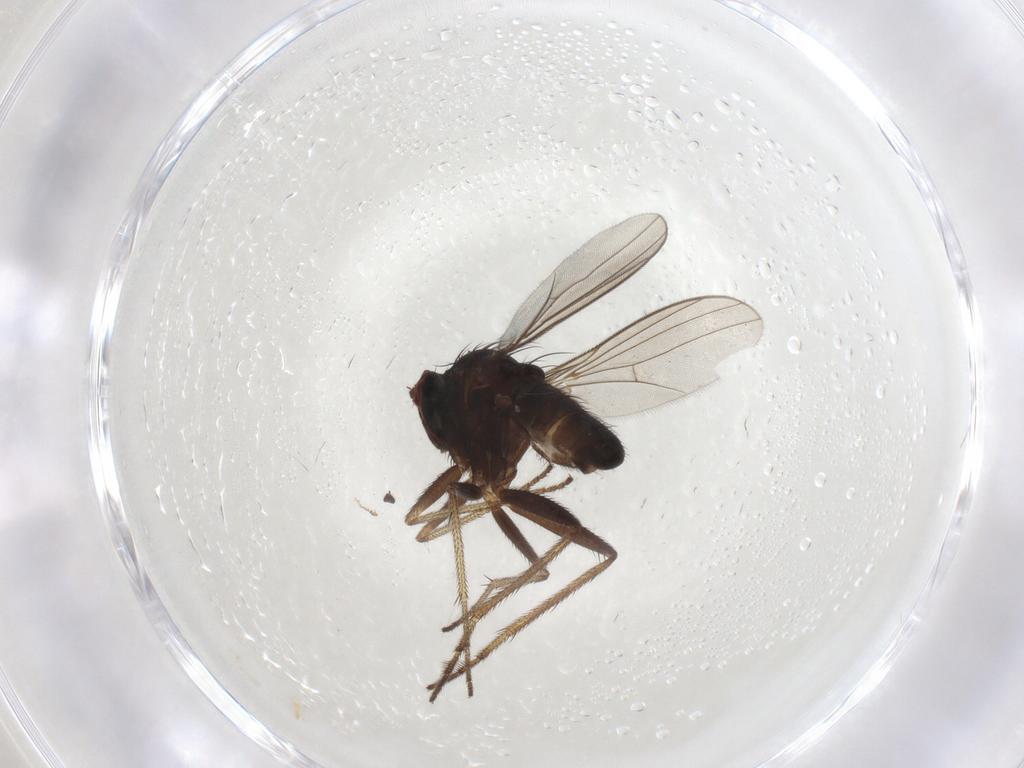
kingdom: Animalia
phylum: Arthropoda
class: Insecta
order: Diptera
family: Dolichopodidae
